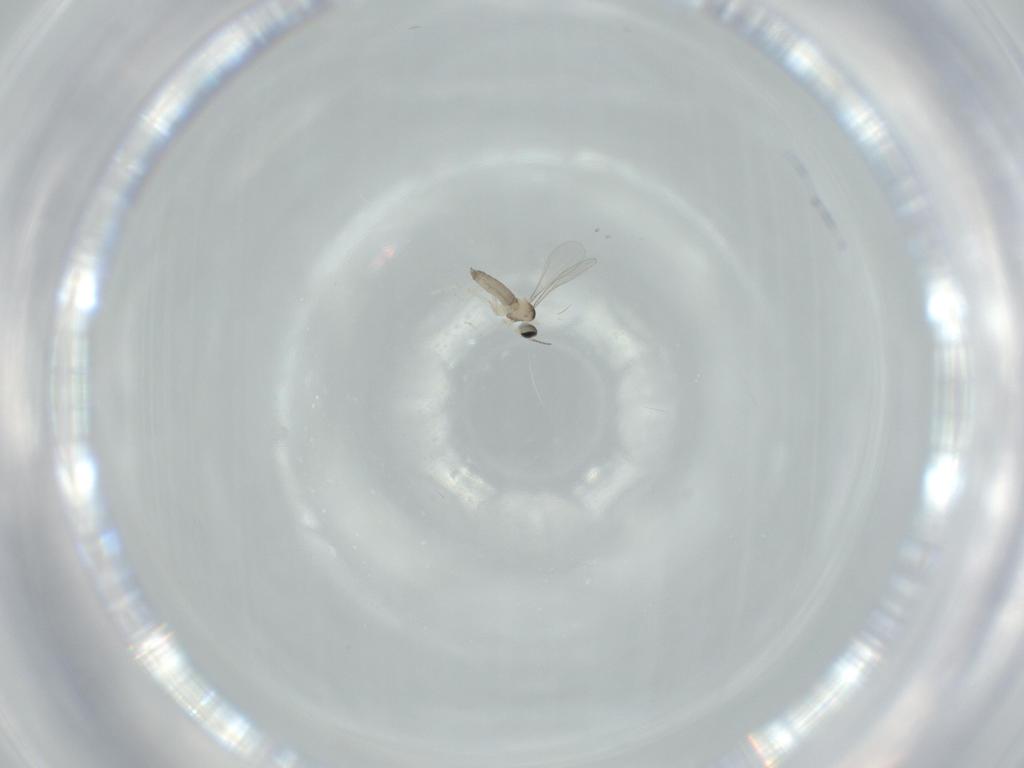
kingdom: Animalia
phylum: Arthropoda
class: Insecta
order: Diptera
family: Clusiidae
